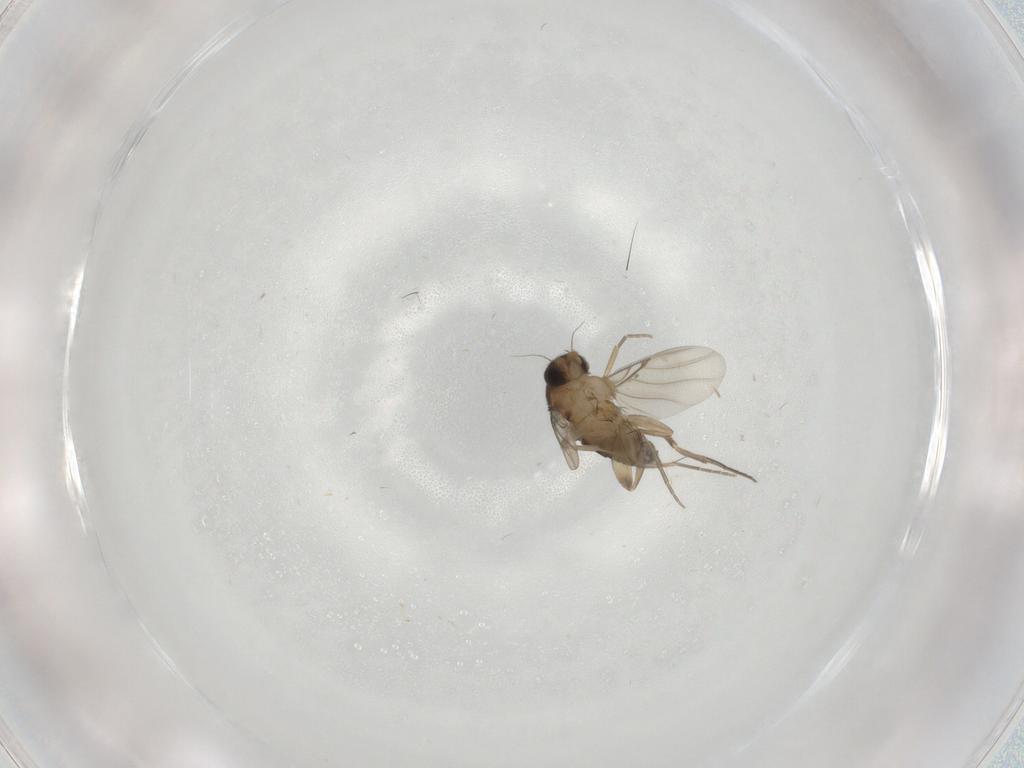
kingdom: Animalia
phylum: Arthropoda
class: Insecta
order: Diptera
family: Phoridae
